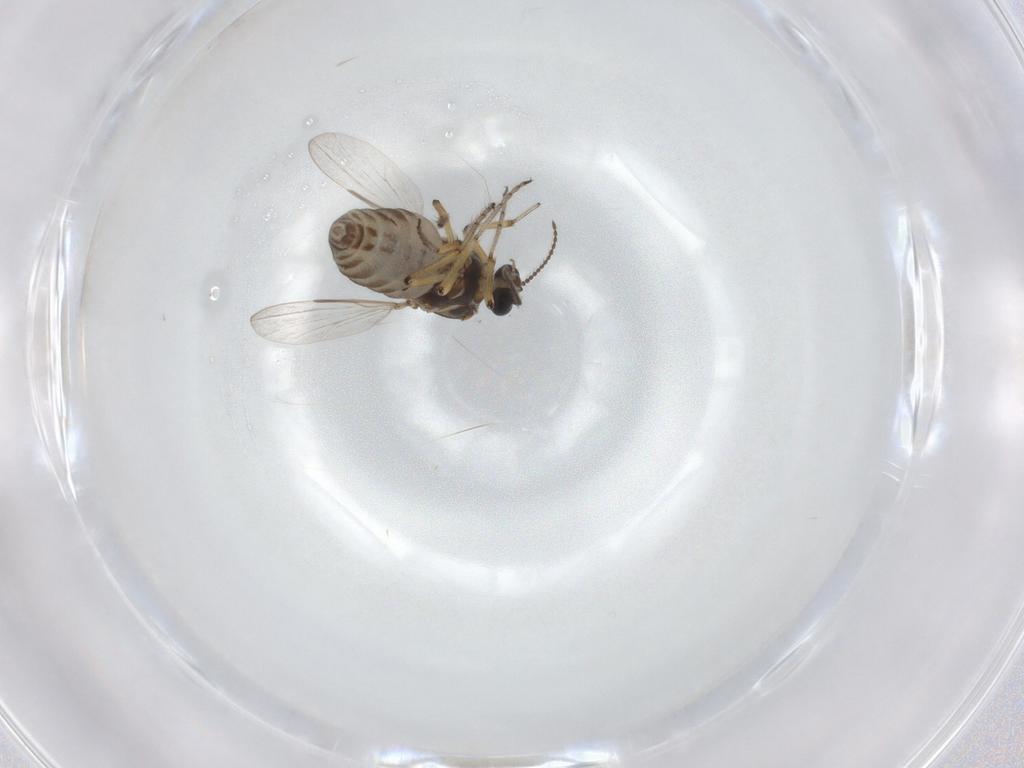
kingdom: Animalia
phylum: Arthropoda
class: Insecta
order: Diptera
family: Ceratopogonidae
